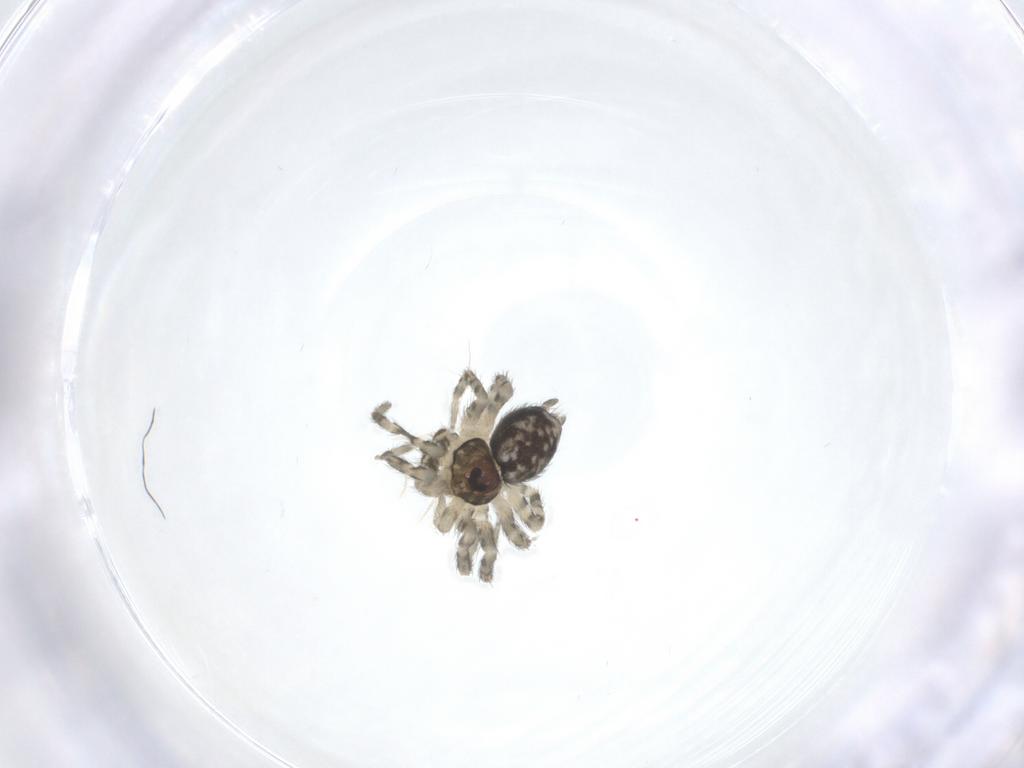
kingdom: Animalia
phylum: Arthropoda
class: Arachnida
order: Araneae
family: Oecobiidae
